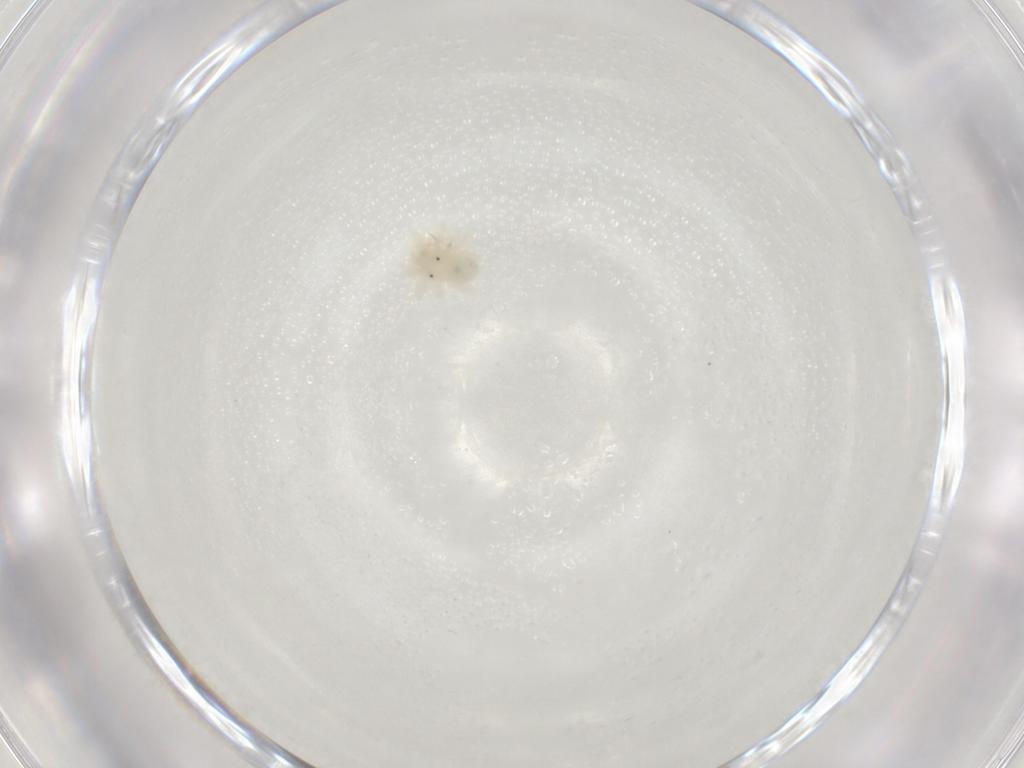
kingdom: Animalia
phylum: Arthropoda
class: Arachnida
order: Trombidiformes
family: Anystidae
